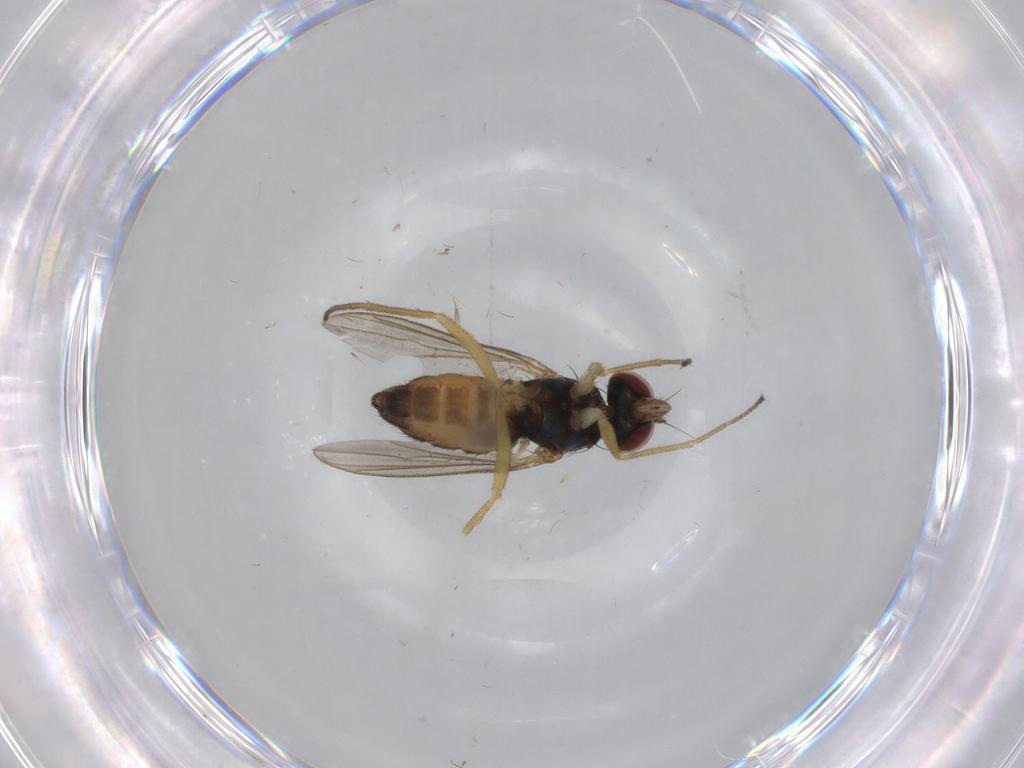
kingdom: Animalia
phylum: Arthropoda
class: Insecta
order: Diptera
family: Dolichopodidae
